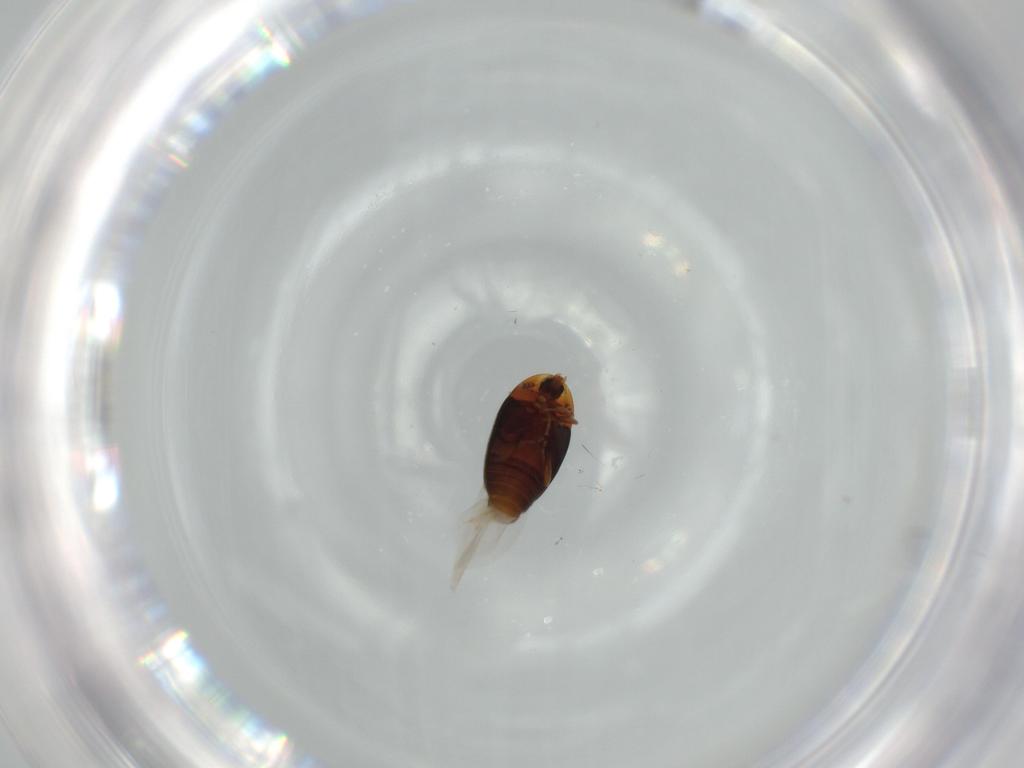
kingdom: Animalia
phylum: Arthropoda
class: Insecta
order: Coleoptera
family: Chrysomelidae
